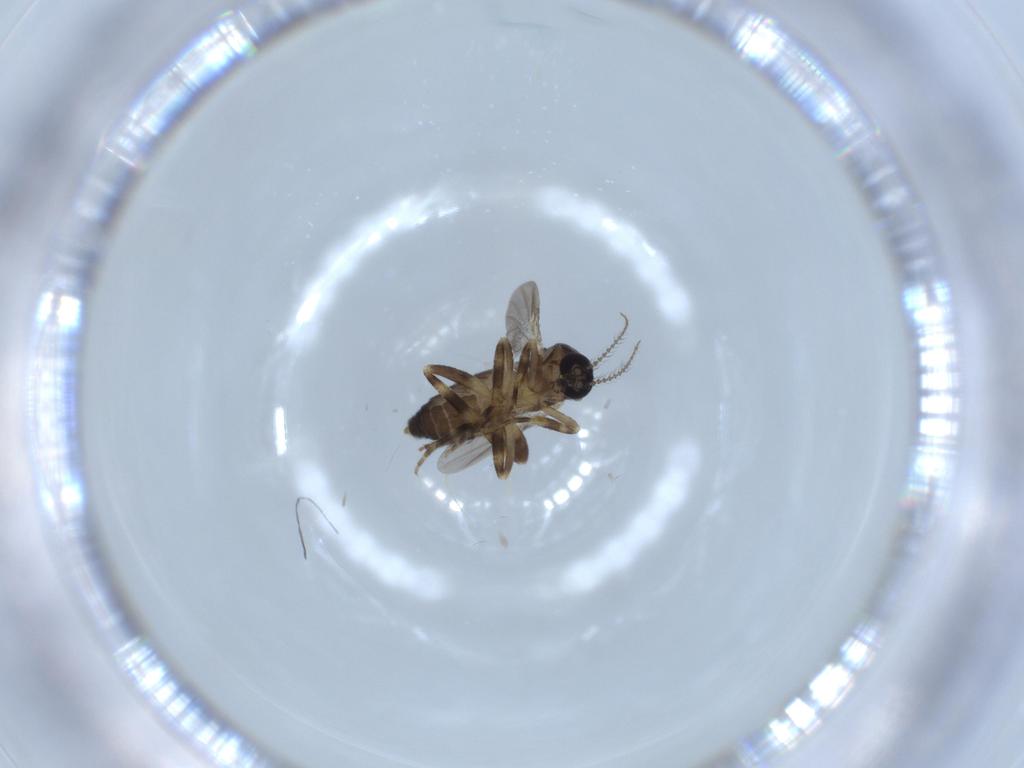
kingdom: Animalia
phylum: Arthropoda
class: Insecta
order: Diptera
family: Ceratopogonidae
